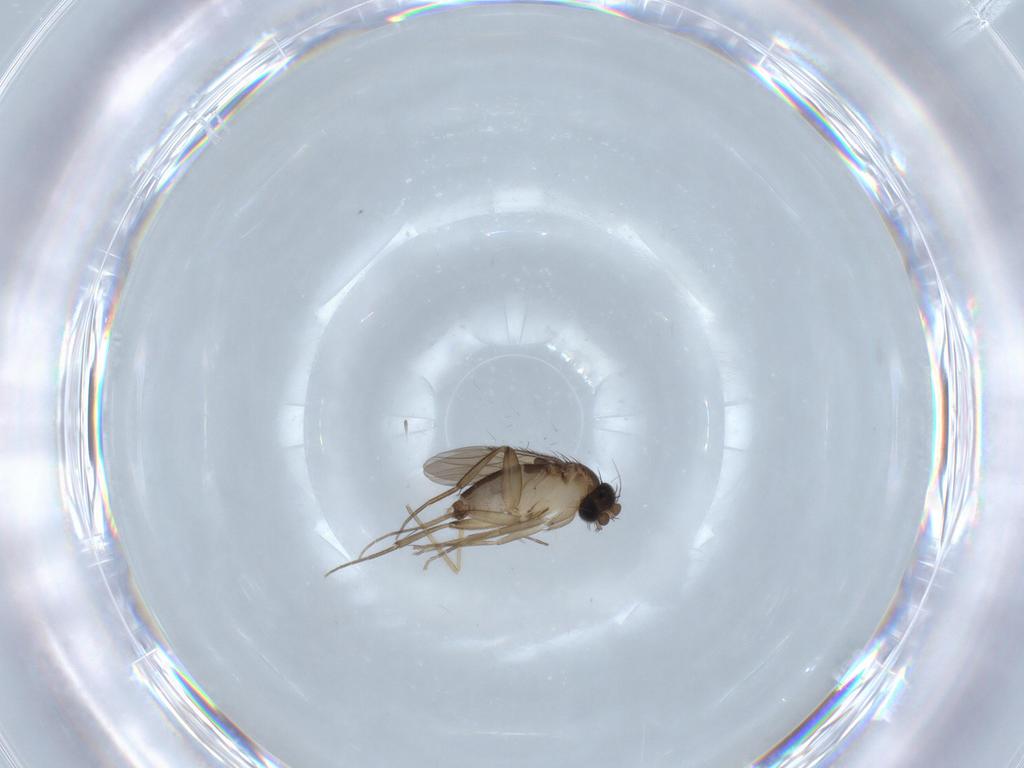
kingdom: Animalia
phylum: Arthropoda
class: Insecta
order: Diptera
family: Phoridae
